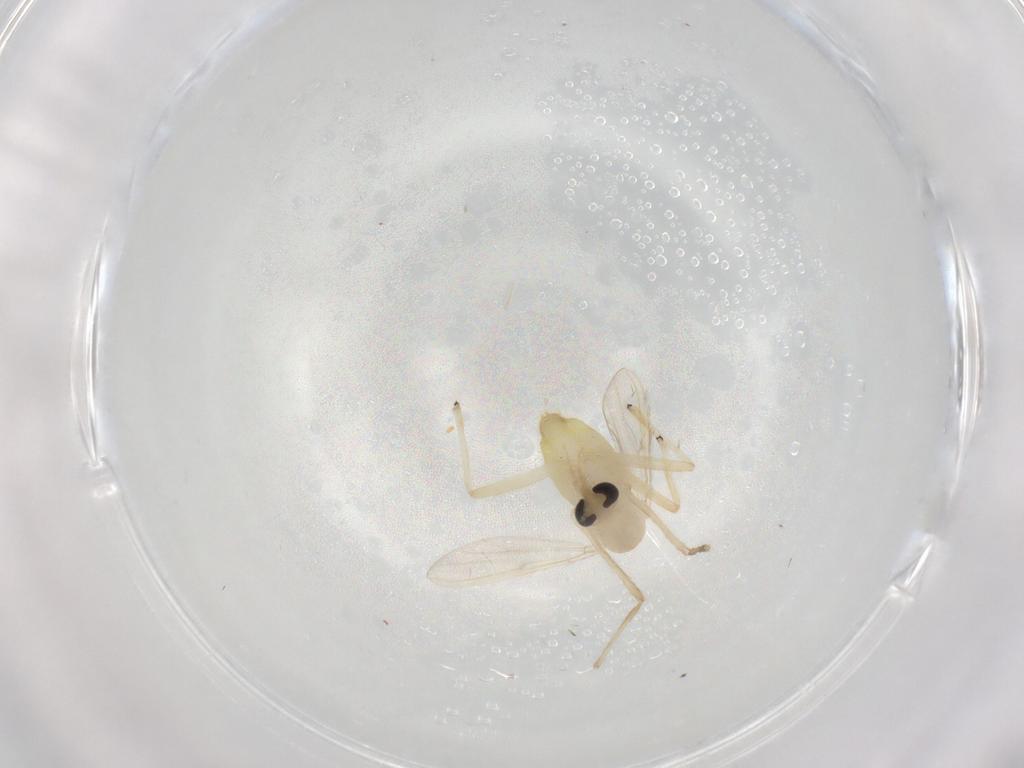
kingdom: Animalia
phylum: Arthropoda
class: Insecta
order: Diptera
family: Chironomidae
